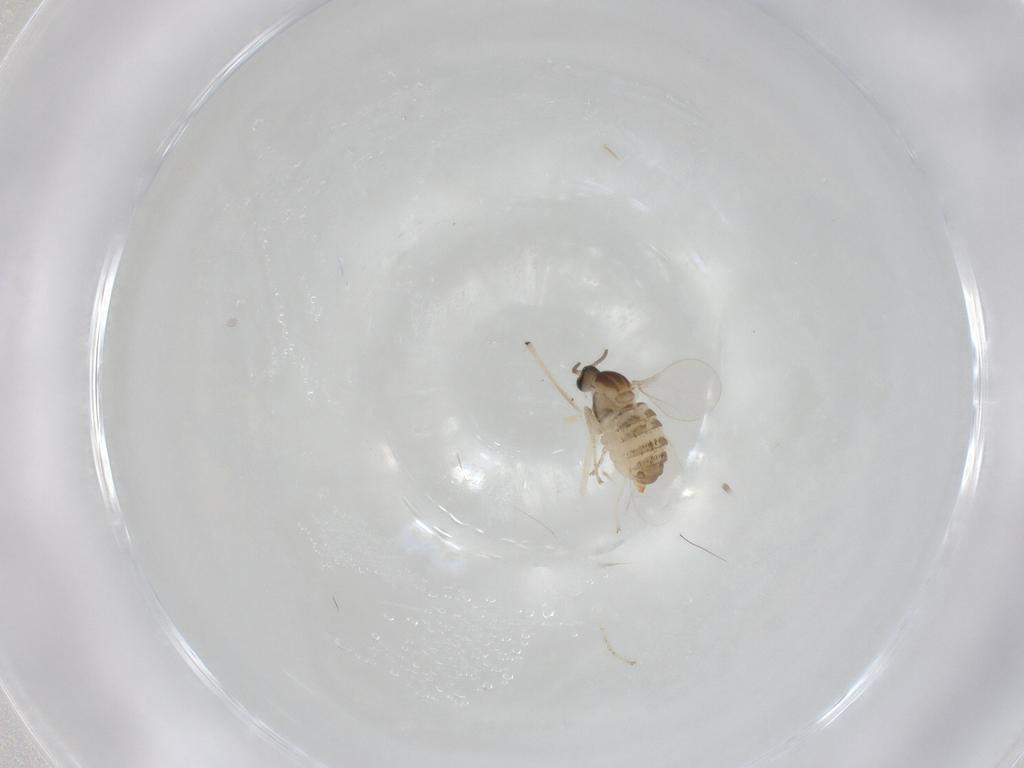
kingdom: Animalia
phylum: Arthropoda
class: Insecta
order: Diptera
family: Cecidomyiidae
